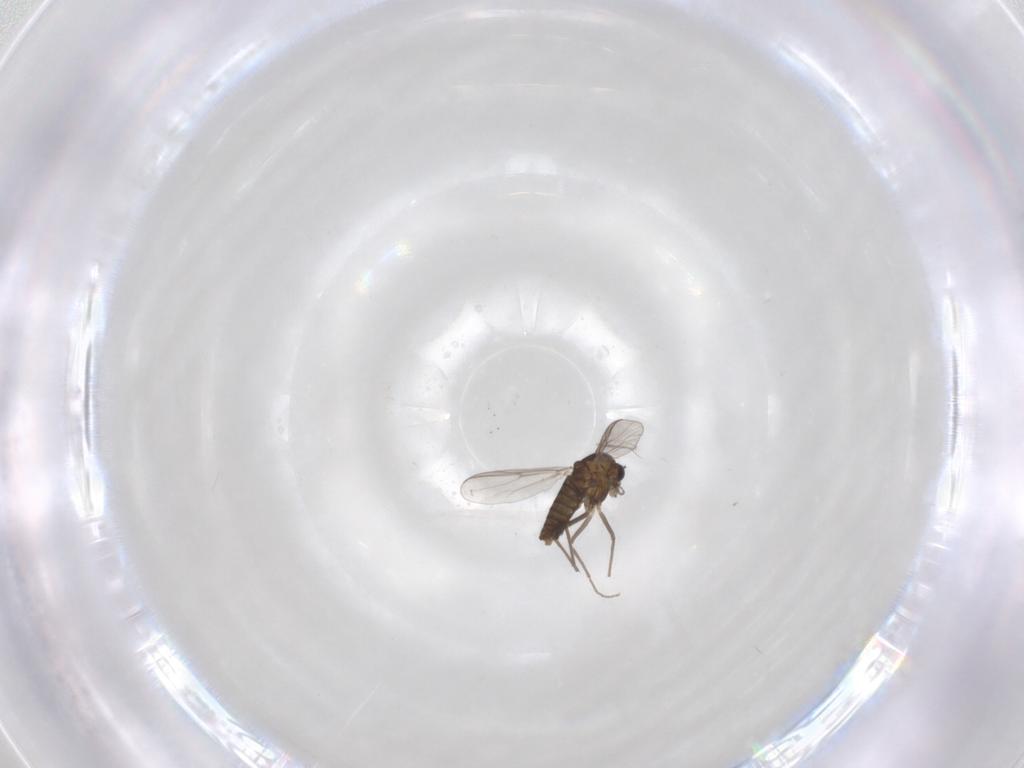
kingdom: Animalia
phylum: Arthropoda
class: Insecta
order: Diptera
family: Chironomidae
